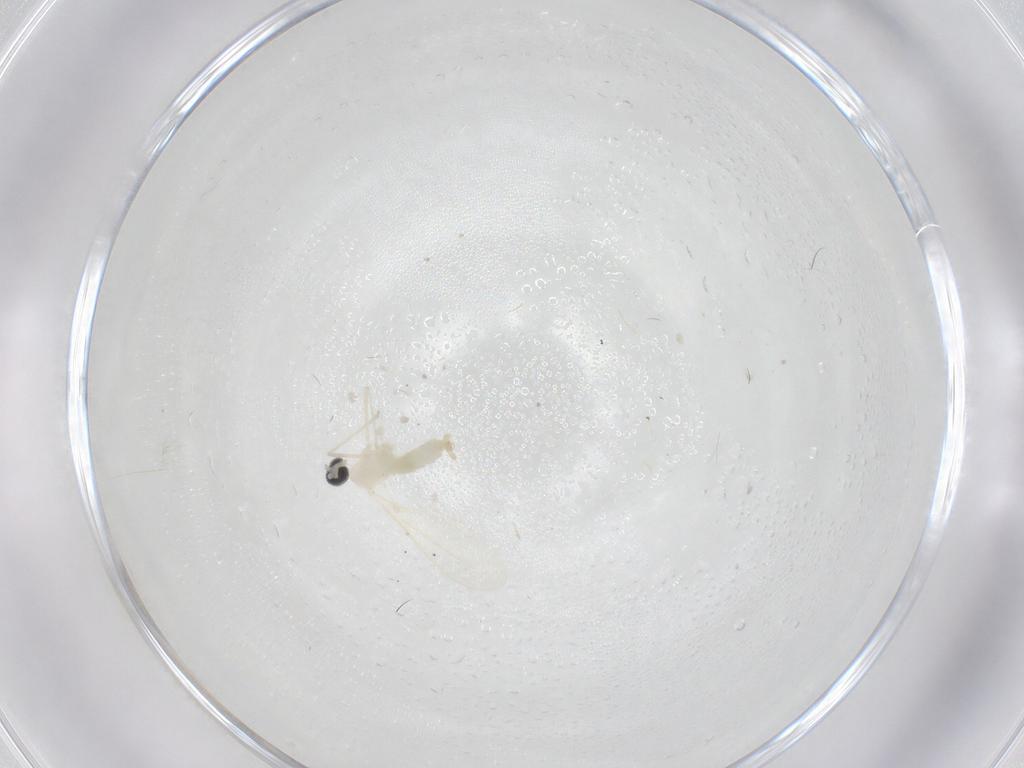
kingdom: Animalia
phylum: Arthropoda
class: Insecta
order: Diptera
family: Cecidomyiidae
